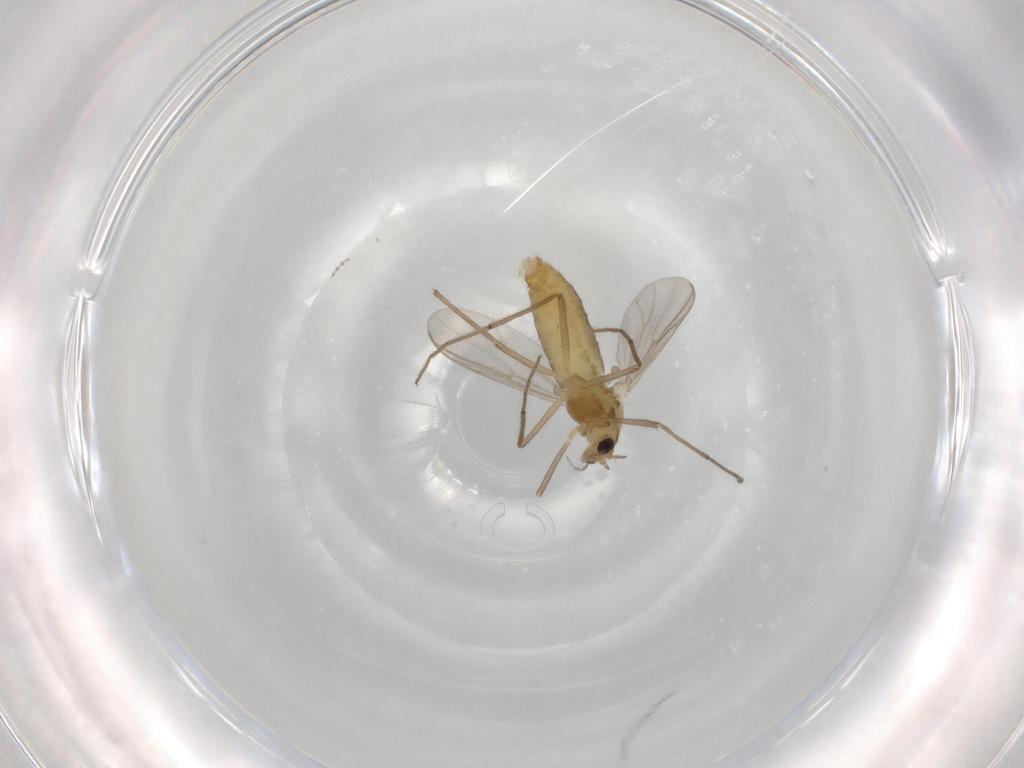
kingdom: Animalia
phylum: Arthropoda
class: Insecta
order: Diptera
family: Chironomidae
